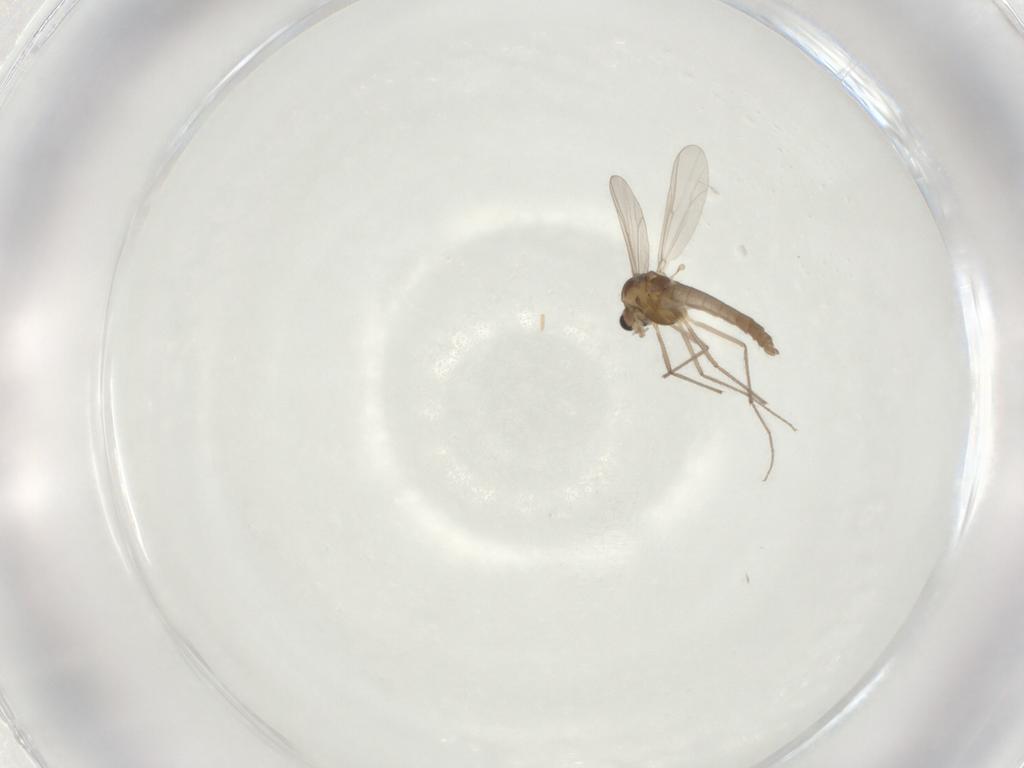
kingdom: Animalia
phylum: Arthropoda
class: Insecta
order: Diptera
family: Chironomidae
